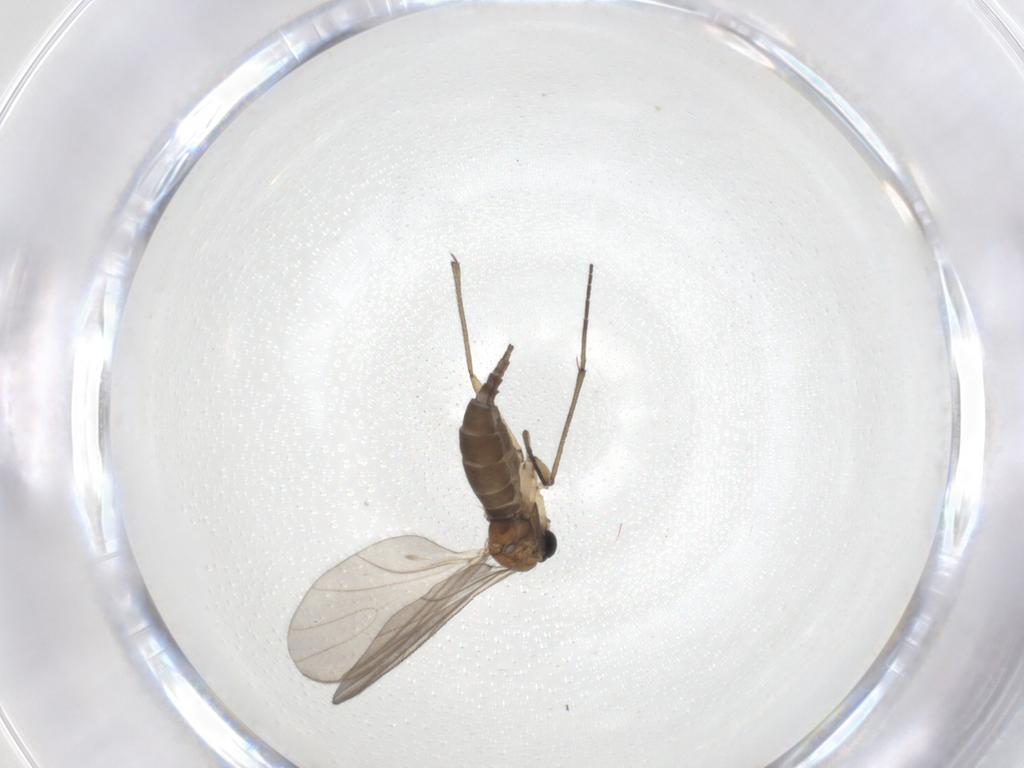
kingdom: Animalia
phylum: Arthropoda
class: Insecta
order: Diptera
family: Sciaridae
